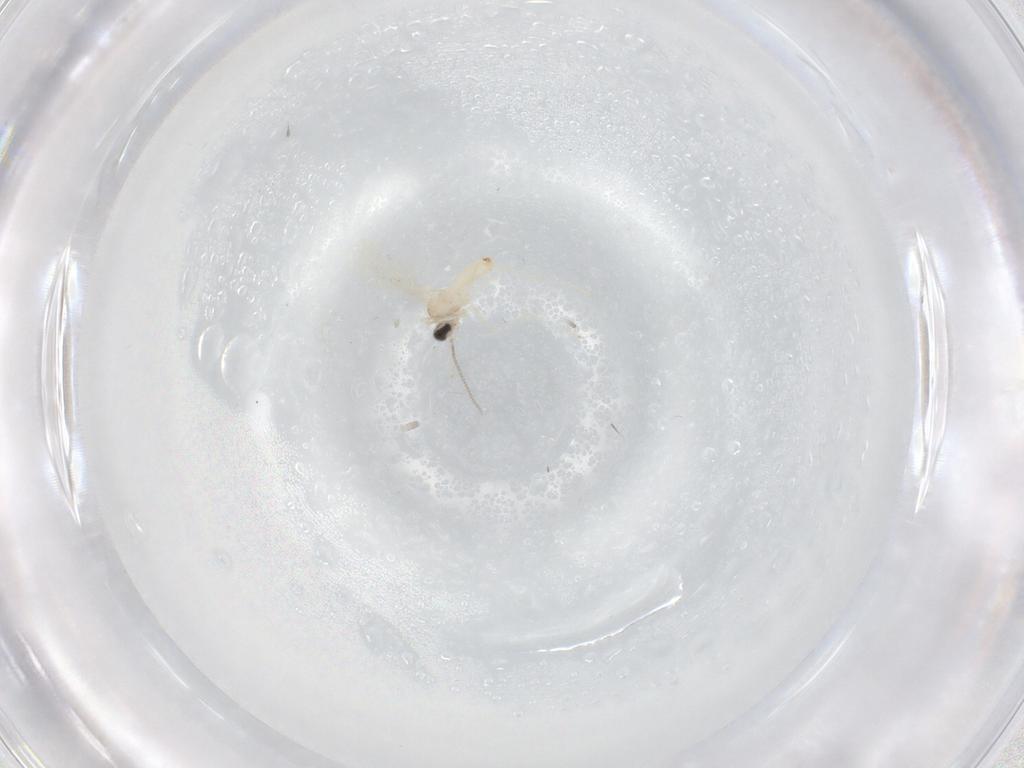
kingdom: Animalia
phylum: Arthropoda
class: Insecta
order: Diptera
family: Cecidomyiidae
